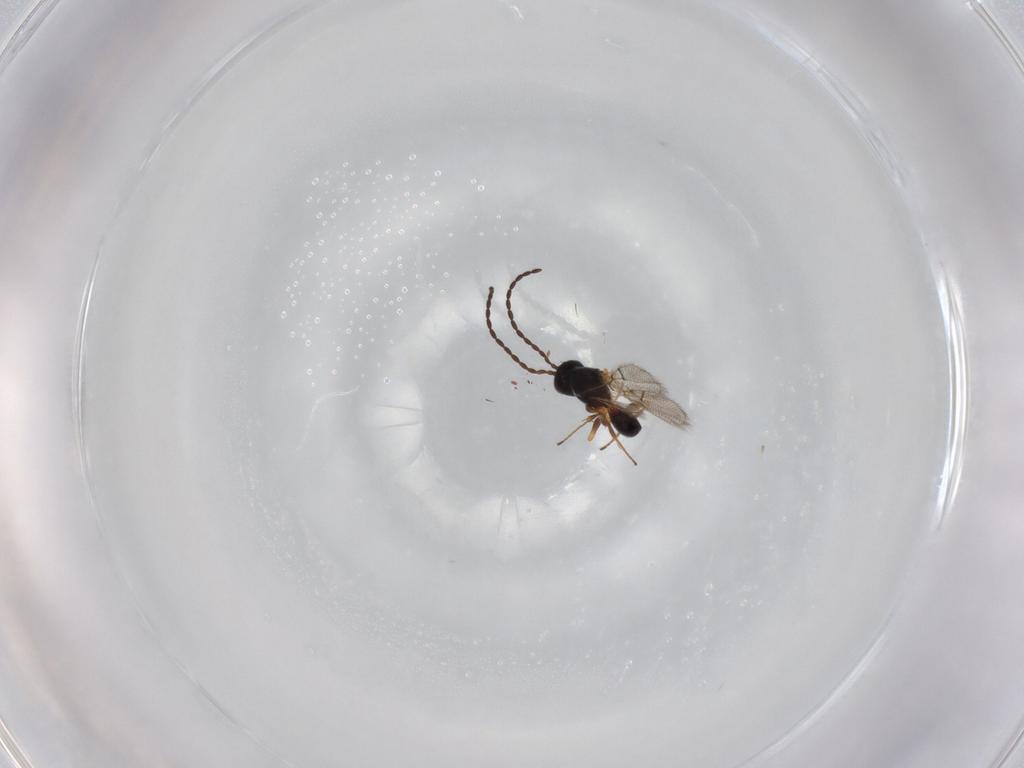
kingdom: Animalia
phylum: Arthropoda
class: Insecta
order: Hymenoptera
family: Figitidae
